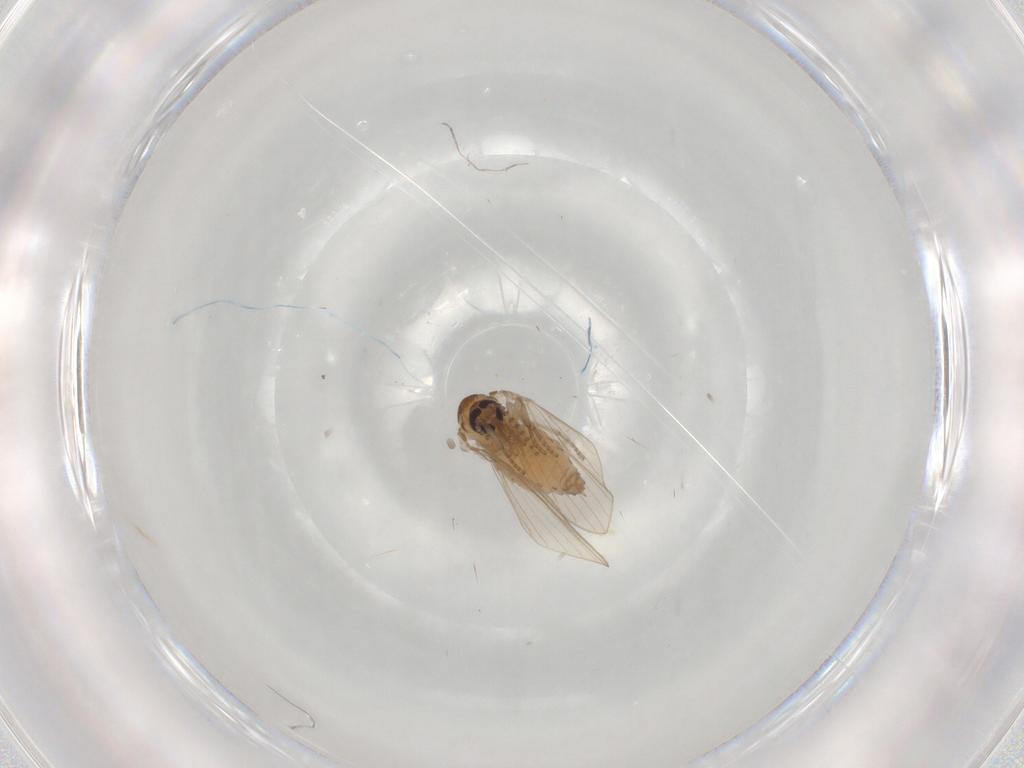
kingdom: Animalia
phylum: Arthropoda
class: Insecta
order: Diptera
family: Psychodidae
